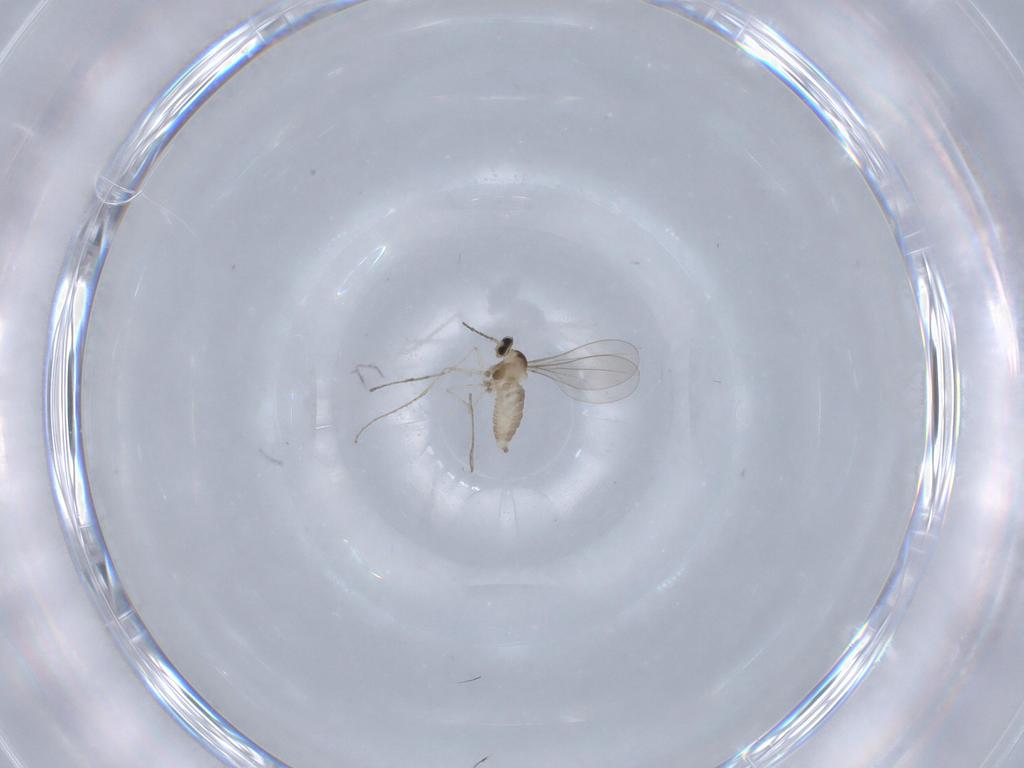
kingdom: Animalia
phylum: Arthropoda
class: Insecta
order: Diptera
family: Cecidomyiidae
